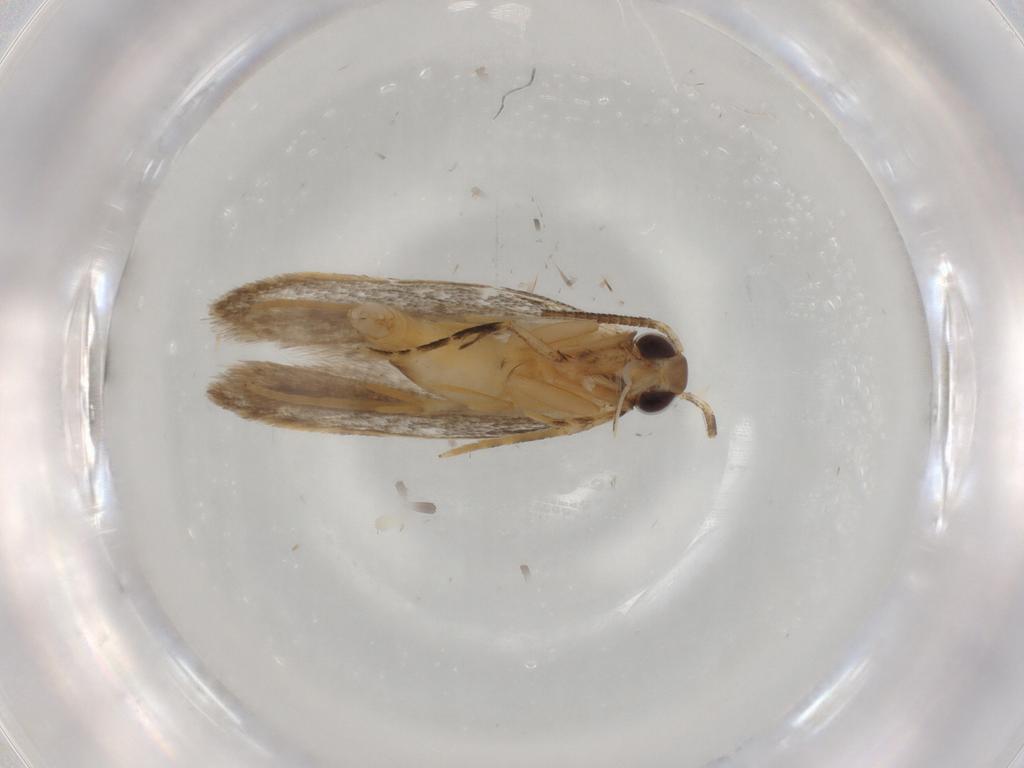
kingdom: Animalia
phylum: Arthropoda
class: Insecta
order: Lepidoptera
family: Autostichidae
